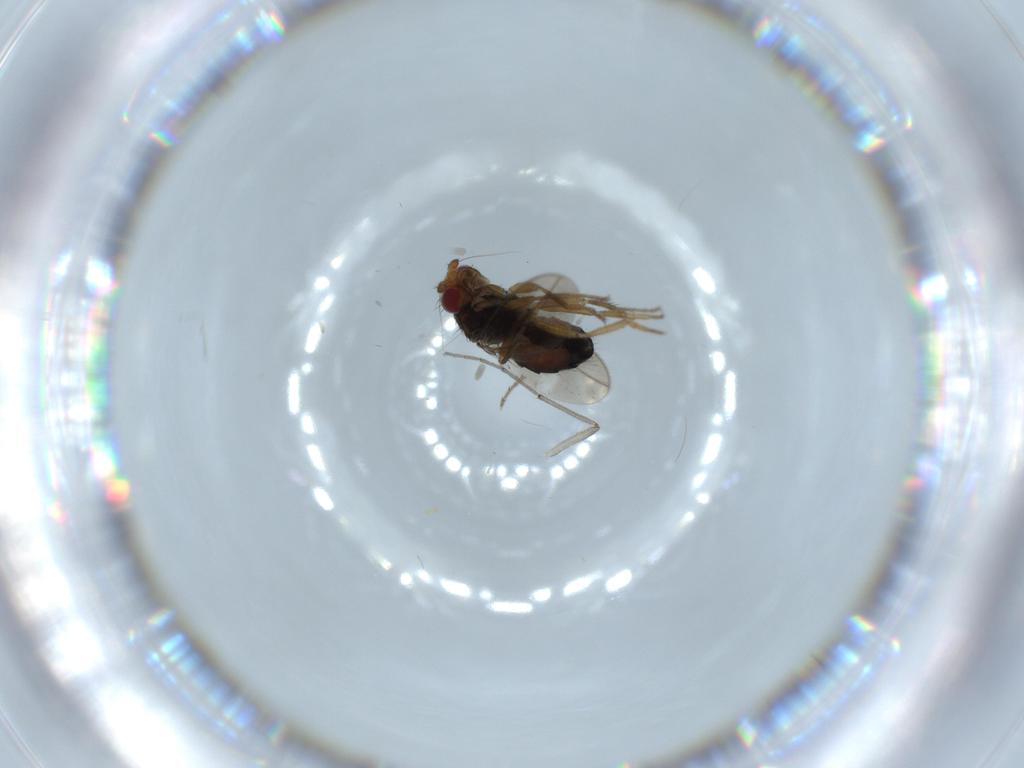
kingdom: Animalia
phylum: Arthropoda
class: Insecta
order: Diptera
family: Sphaeroceridae
